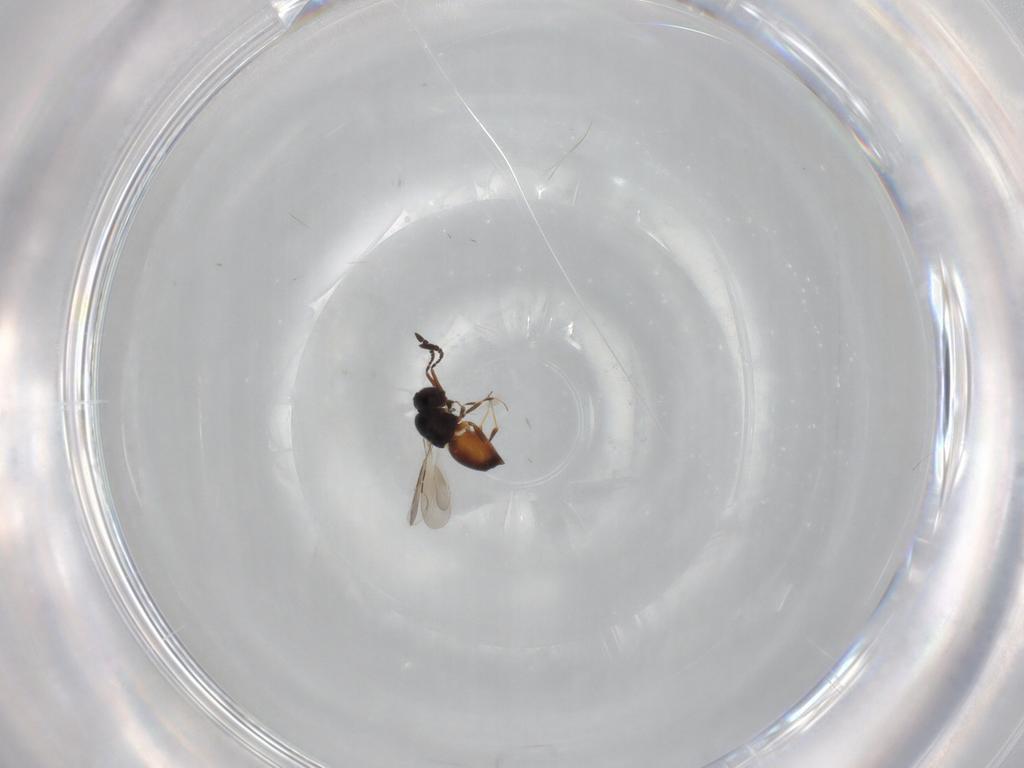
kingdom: Animalia
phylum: Arthropoda
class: Insecta
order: Hymenoptera
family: Ceraphronidae
